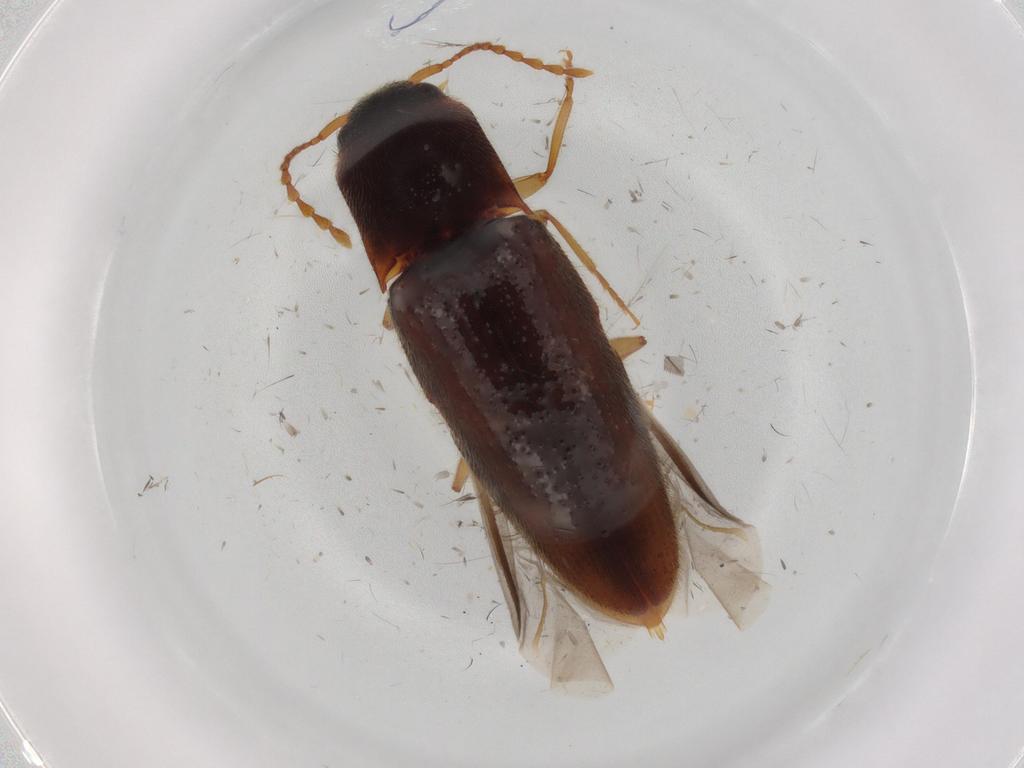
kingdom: Animalia
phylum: Arthropoda
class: Insecta
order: Coleoptera
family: Elateridae
